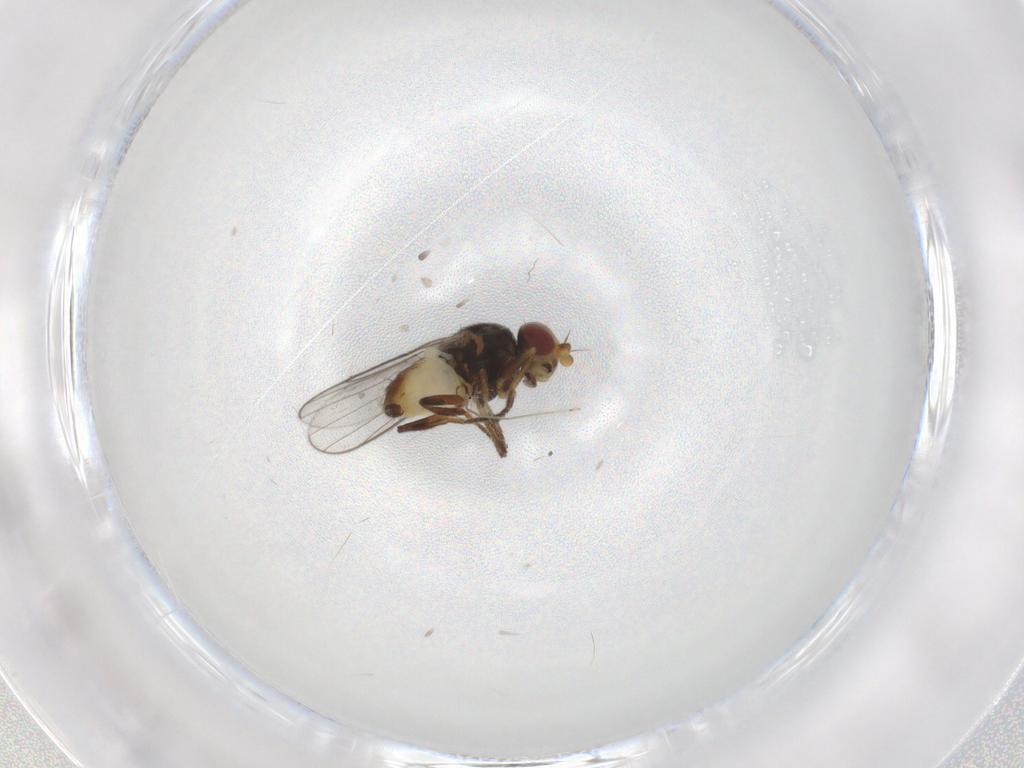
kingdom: Animalia
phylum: Arthropoda
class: Insecta
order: Diptera
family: Chloropidae
